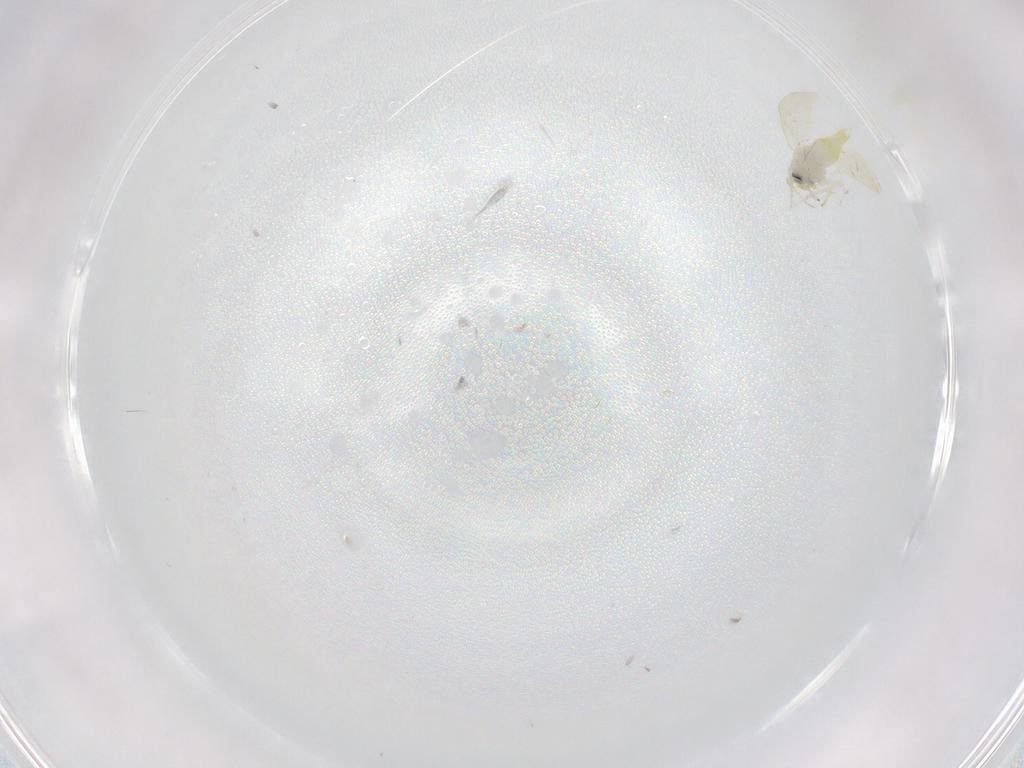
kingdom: Animalia
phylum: Arthropoda
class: Insecta
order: Hemiptera
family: Aleyrodidae
